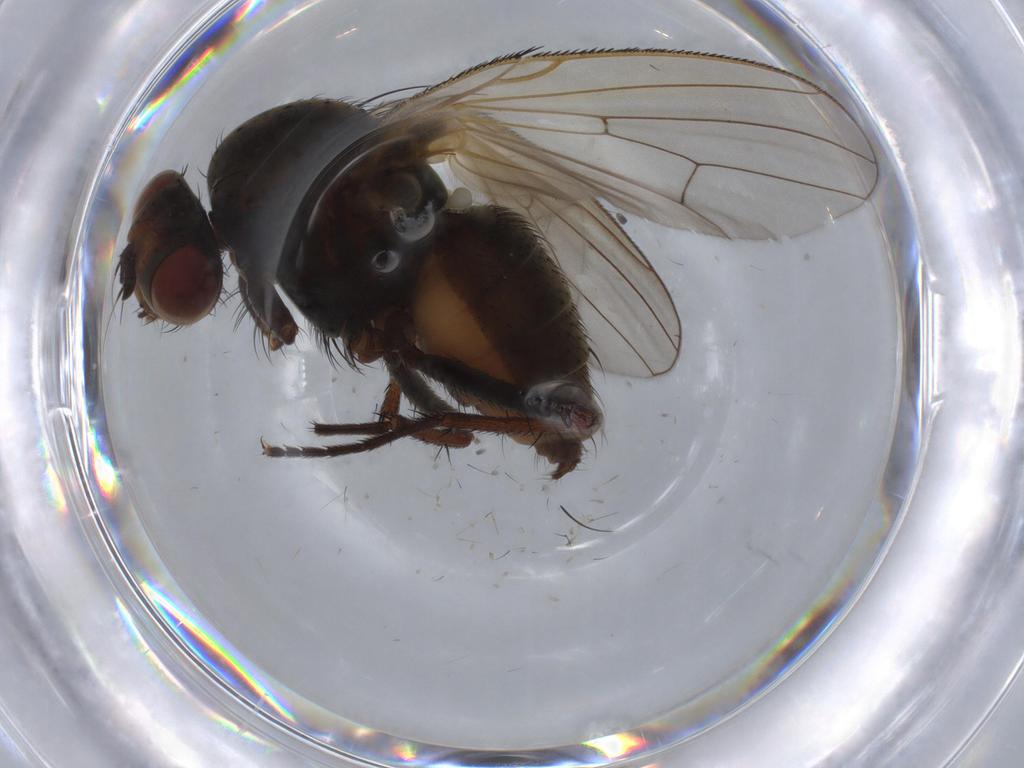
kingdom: Animalia
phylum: Arthropoda
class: Insecta
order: Diptera
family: Anthomyiidae
